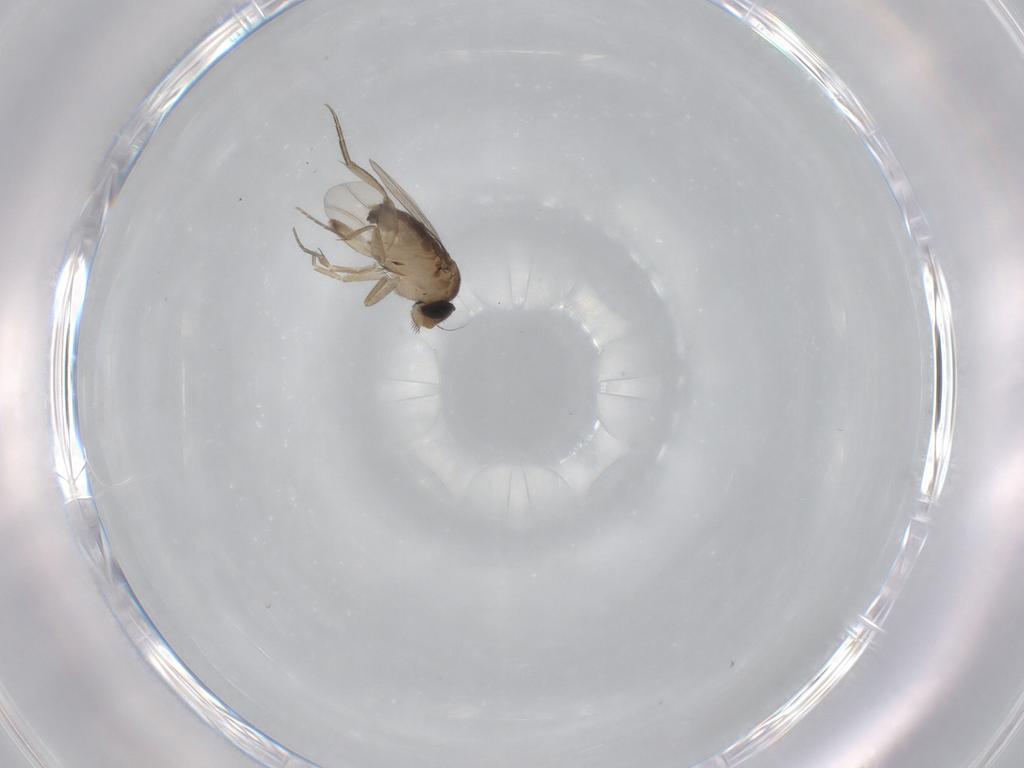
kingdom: Animalia
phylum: Arthropoda
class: Insecta
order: Diptera
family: Phoridae
